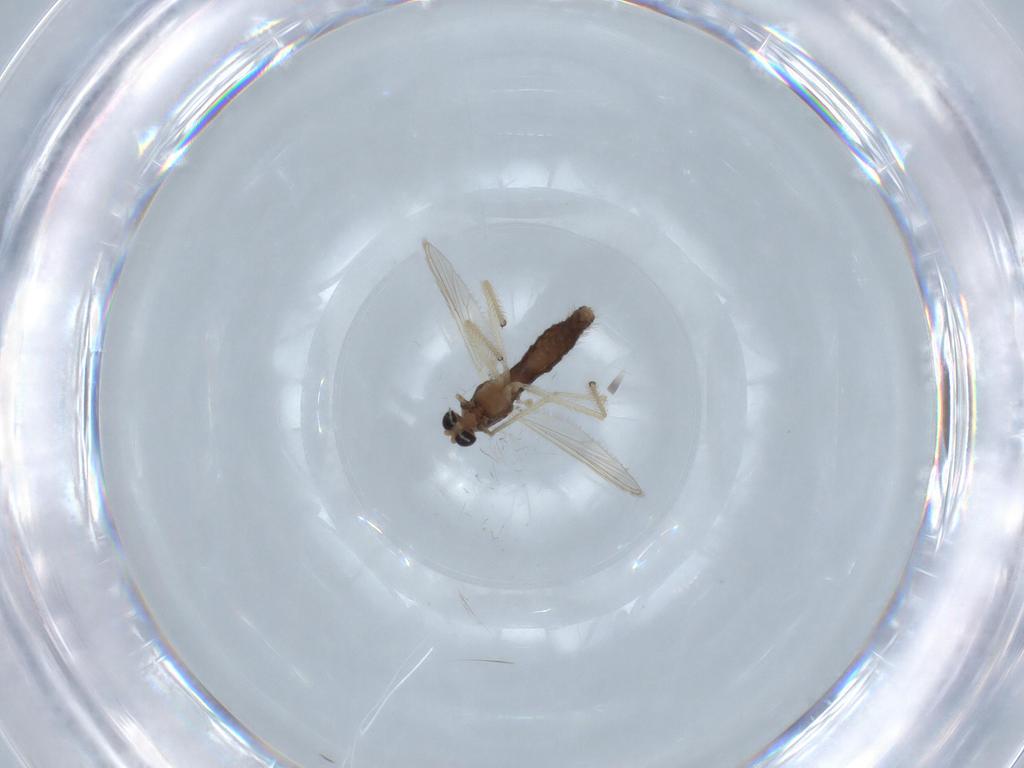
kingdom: Animalia
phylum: Arthropoda
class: Insecta
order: Diptera
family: Chironomidae
